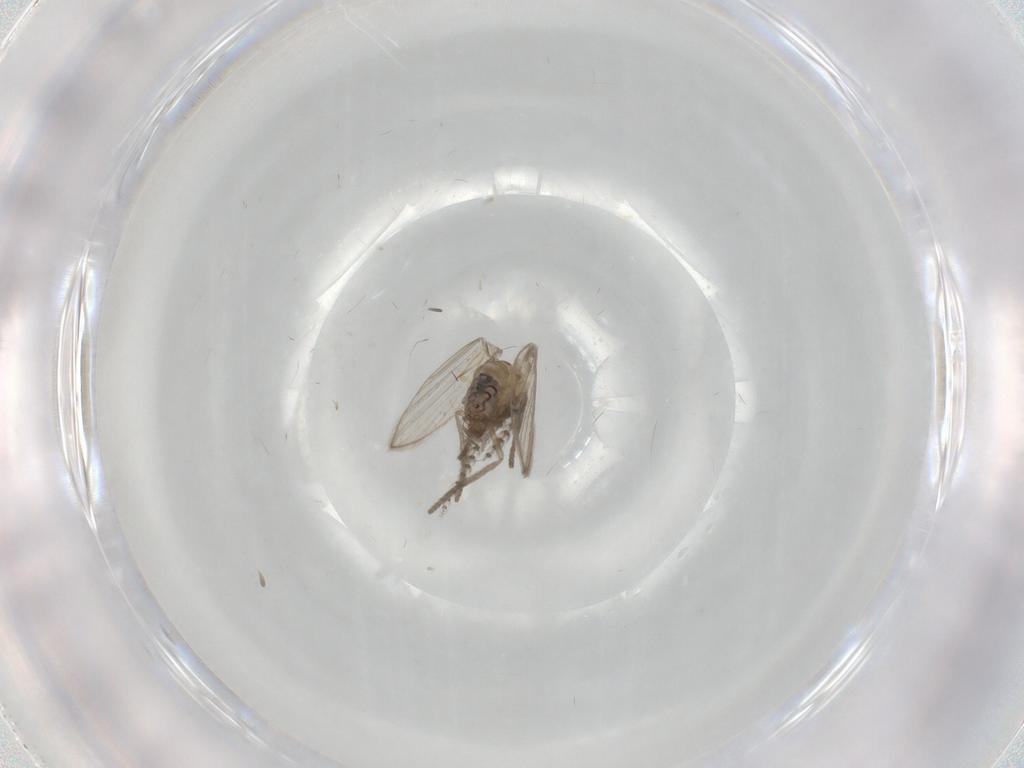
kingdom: Animalia
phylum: Arthropoda
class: Insecta
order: Diptera
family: Psychodidae
